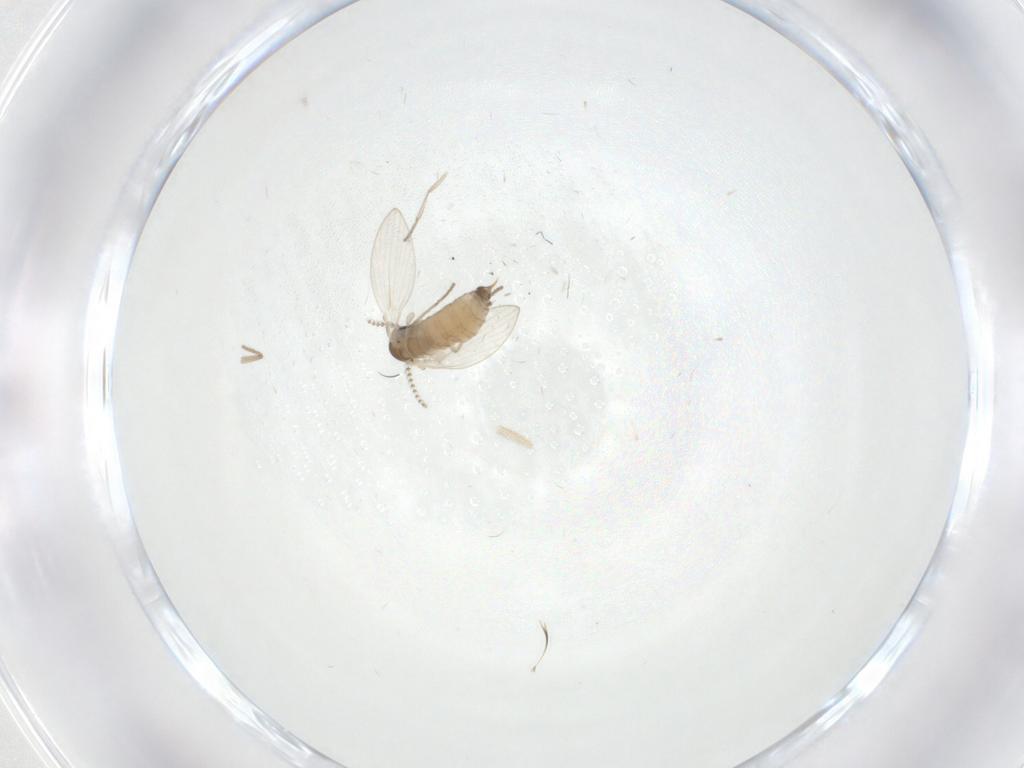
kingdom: Animalia
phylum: Arthropoda
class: Insecta
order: Diptera
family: Psychodidae
